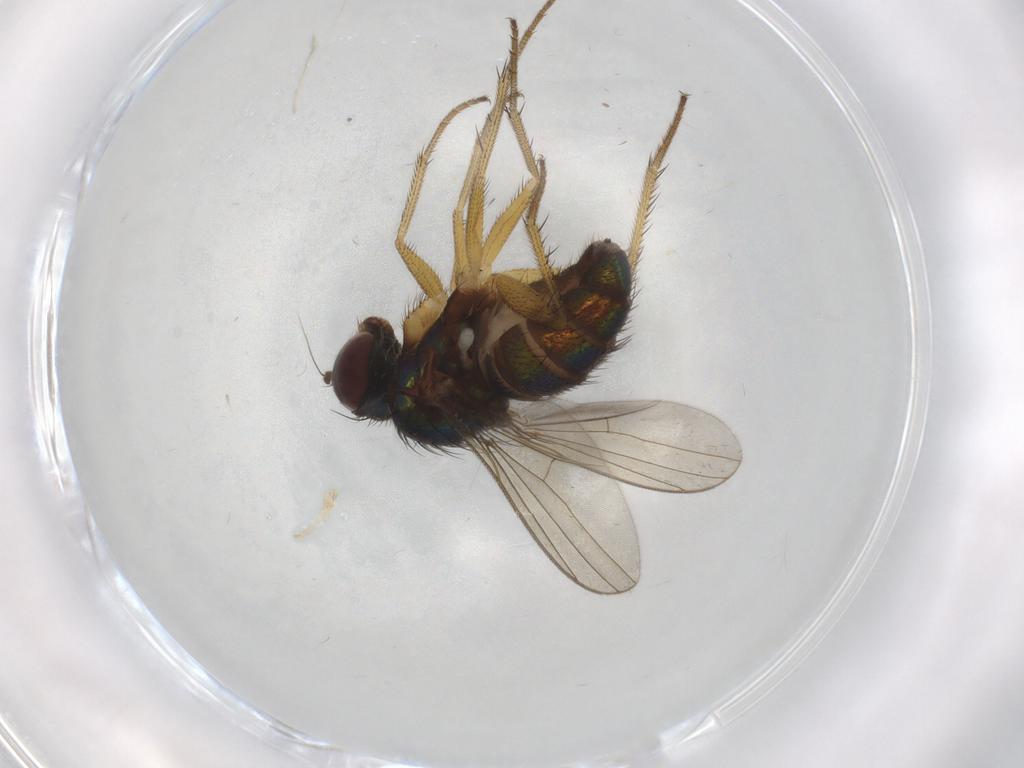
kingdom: Animalia
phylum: Arthropoda
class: Insecta
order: Diptera
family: Dolichopodidae
